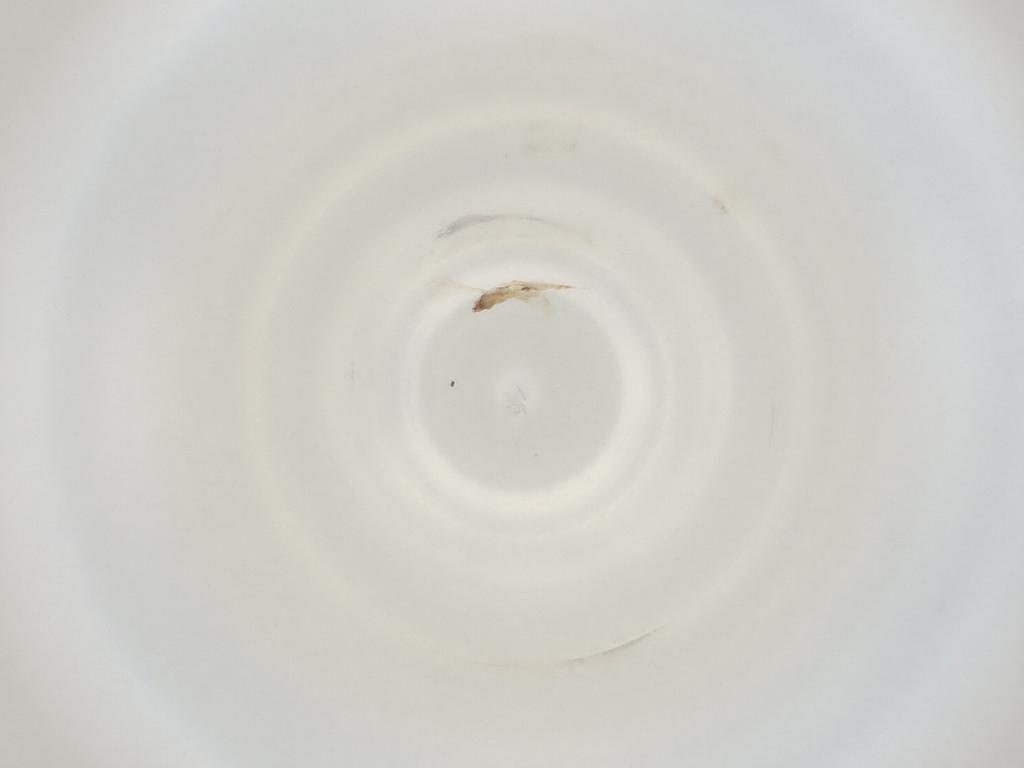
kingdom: Animalia
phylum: Arthropoda
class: Insecta
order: Diptera
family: Cecidomyiidae
